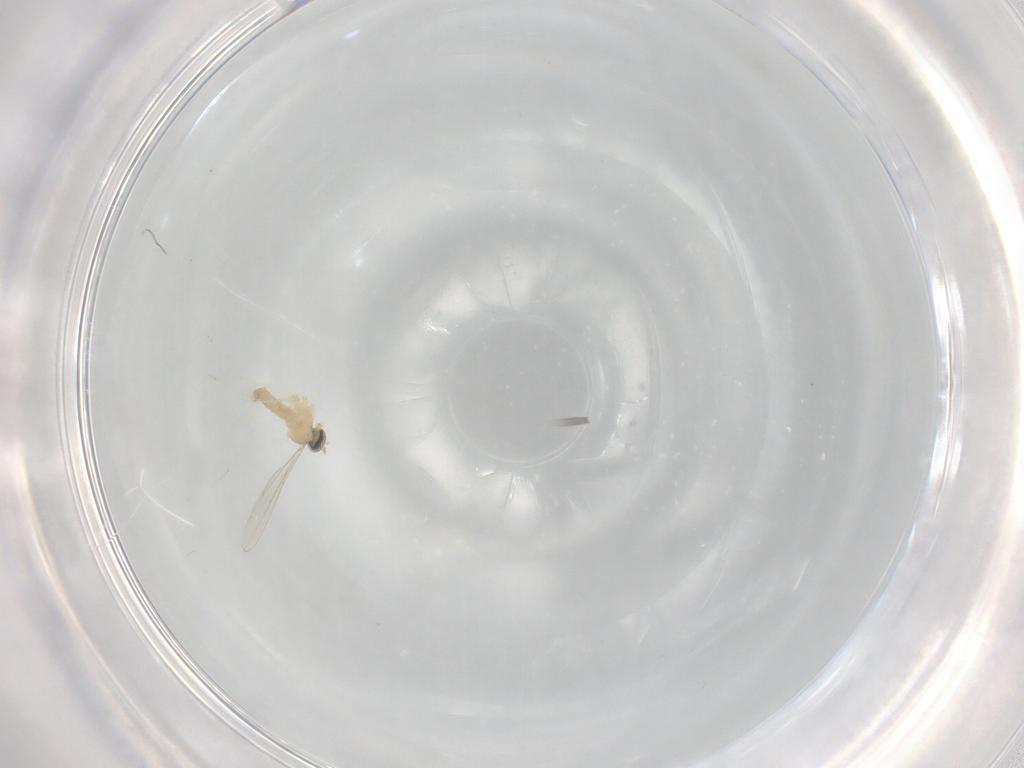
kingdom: Animalia
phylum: Arthropoda
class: Insecta
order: Diptera
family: Cecidomyiidae
